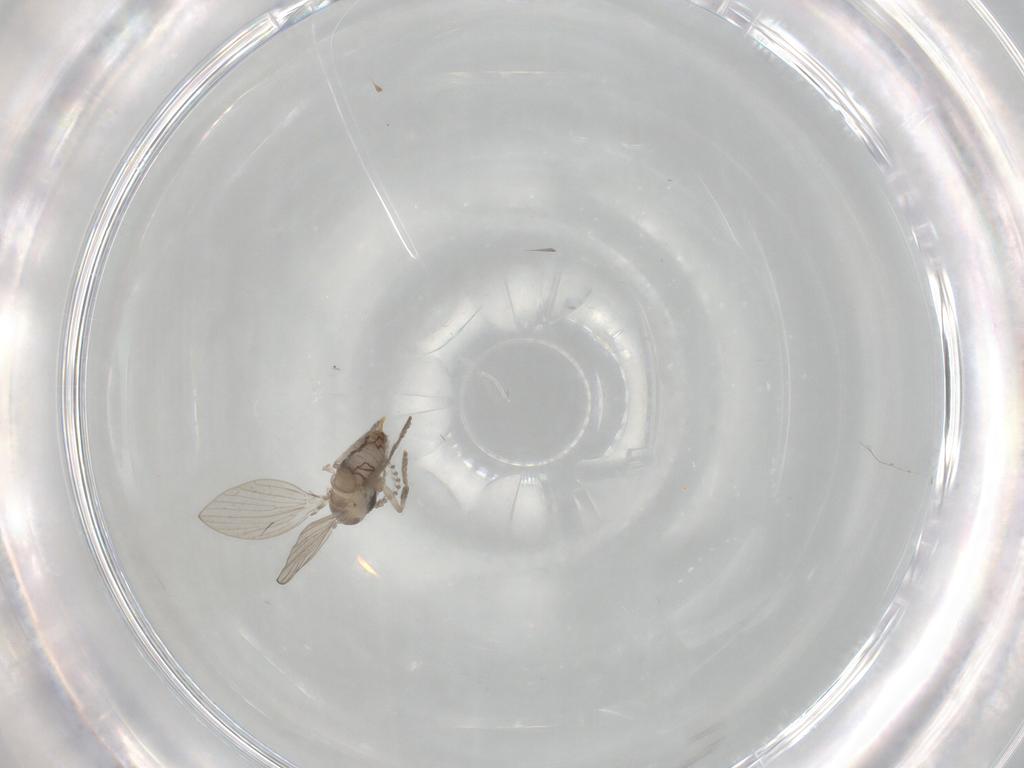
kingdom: Animalia
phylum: Arthropoda
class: Insecta
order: Diptera
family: Psychodidae
